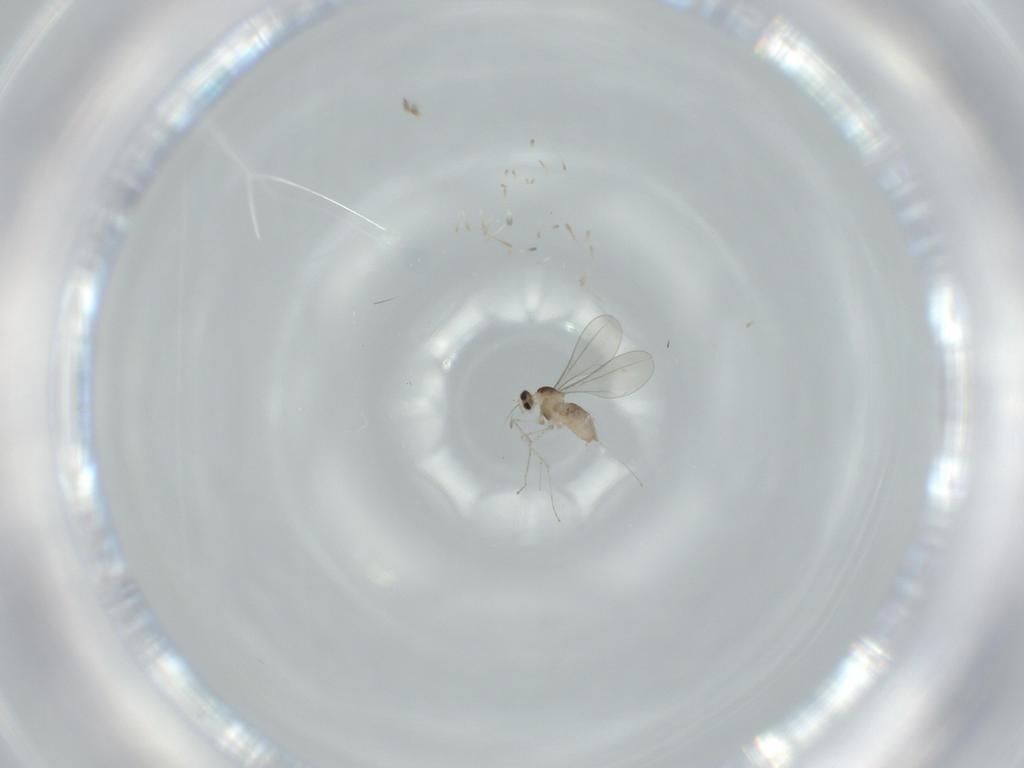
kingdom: Animalia
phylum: Arthropoda
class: Insecta
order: Diptera
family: Cecidomyiidae
